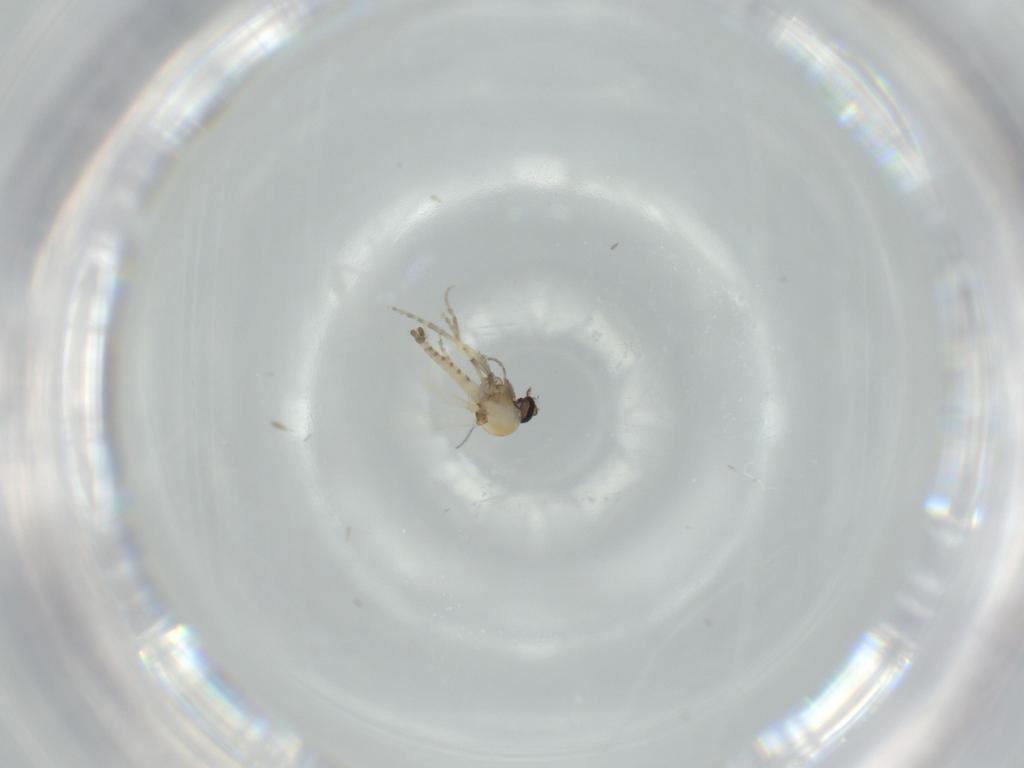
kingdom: Animalia
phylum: Arthropoda
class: Insecta
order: Diptera
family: Ceratopogonidae
